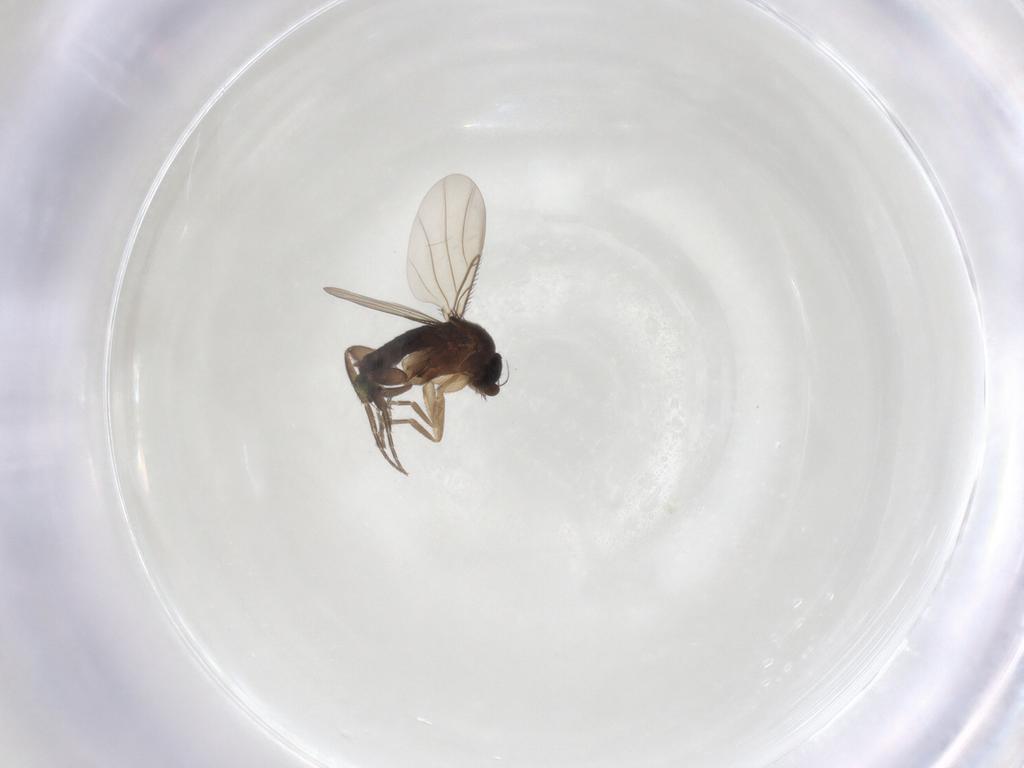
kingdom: Animalia
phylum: Arthropoda
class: Insecta
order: Diptera
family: Phoridae
